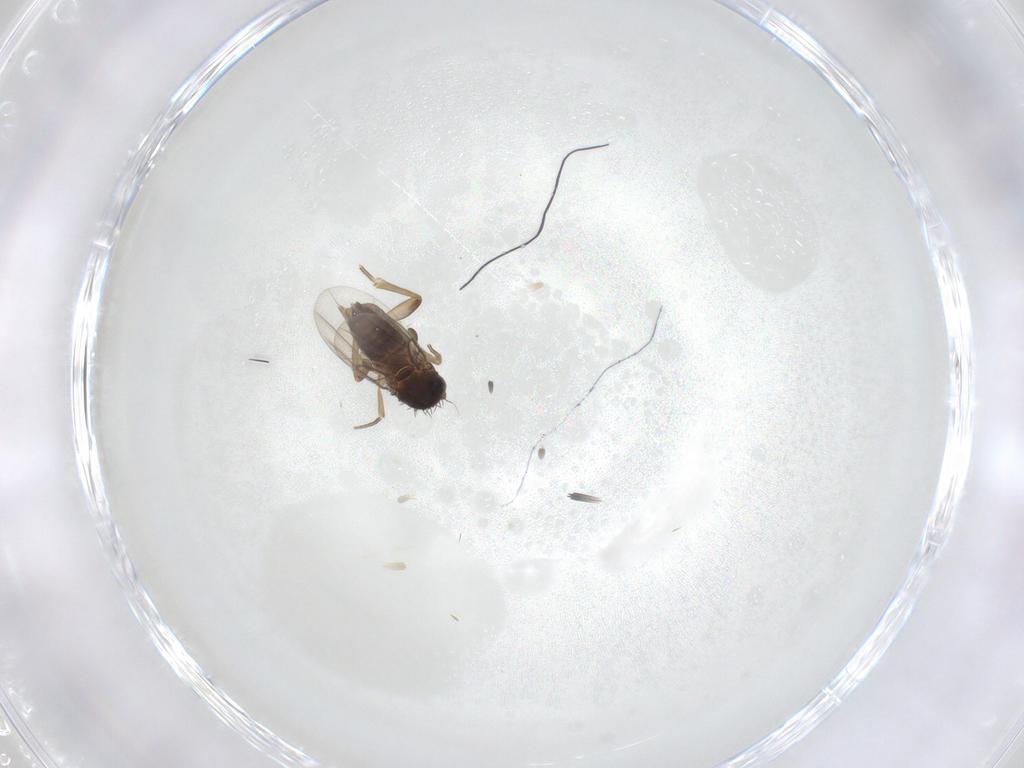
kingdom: Animalia
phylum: Arthropoda
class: Insecta
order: Diptera
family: Phoridae
